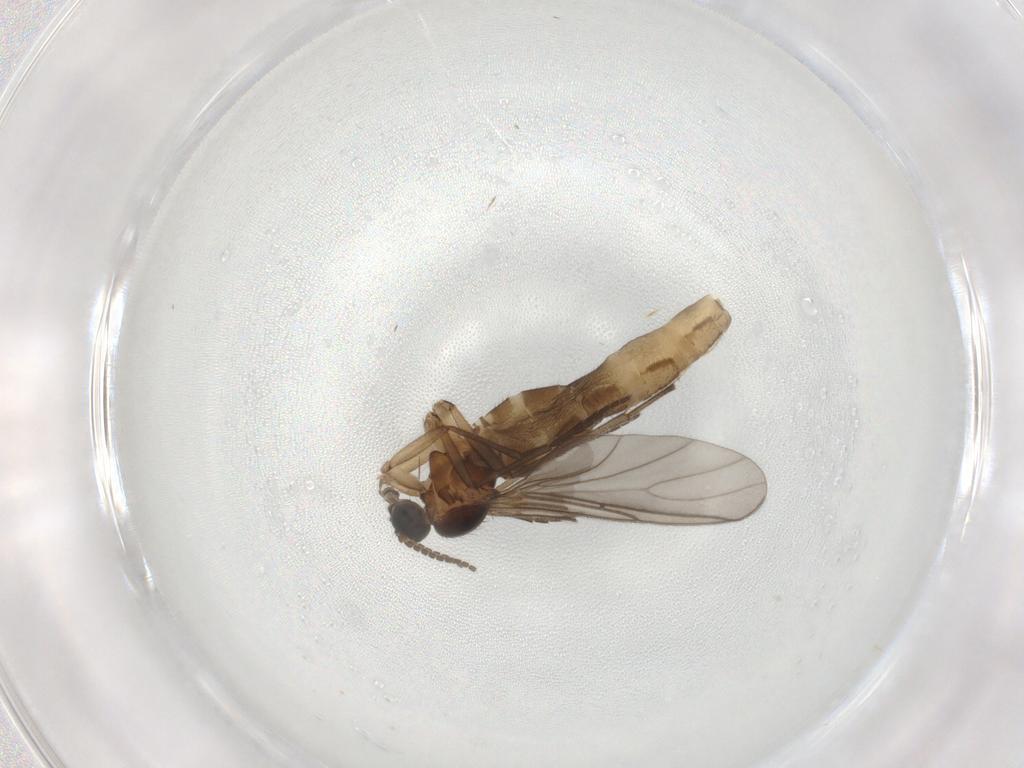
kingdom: Animalia
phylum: Arthropoda
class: Insecta
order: Diptera
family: Sciaridae
